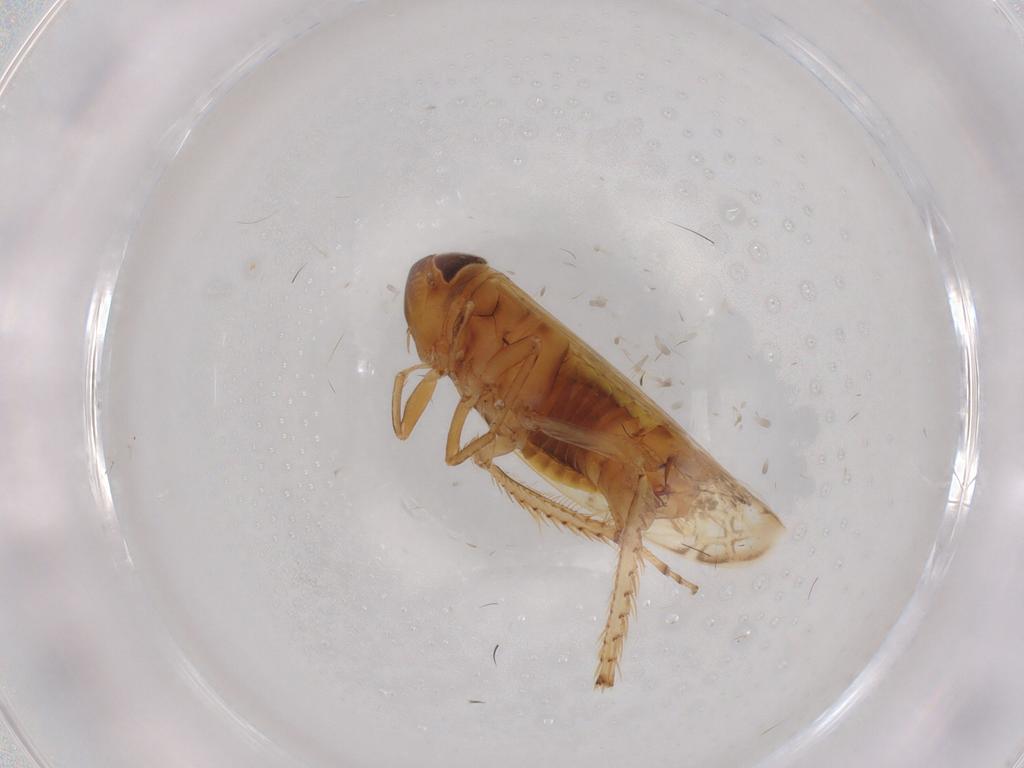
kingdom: Animalia
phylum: Arthropoda
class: Insecta
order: Hemiptera
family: Cicadellidae
